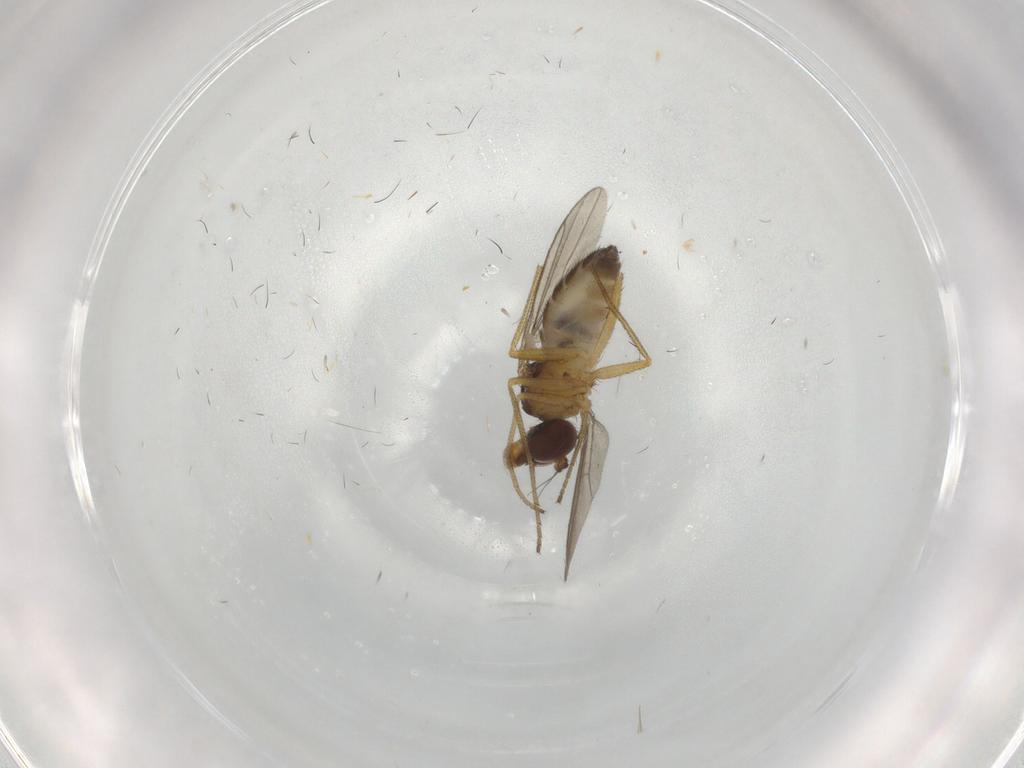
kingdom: Animalia
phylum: Arthropoda
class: Insecta
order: Diptera
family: Dolichopodidae
